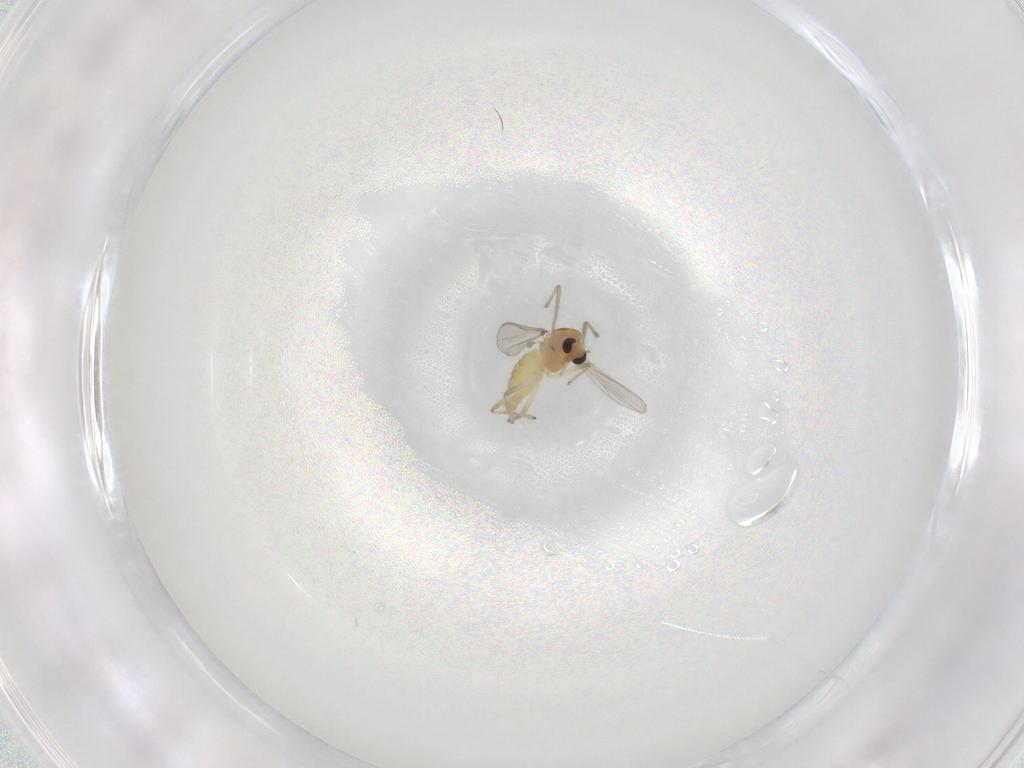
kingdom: Animalia
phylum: Arthropoda
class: Insecta
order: Diptera
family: Chironomidae
